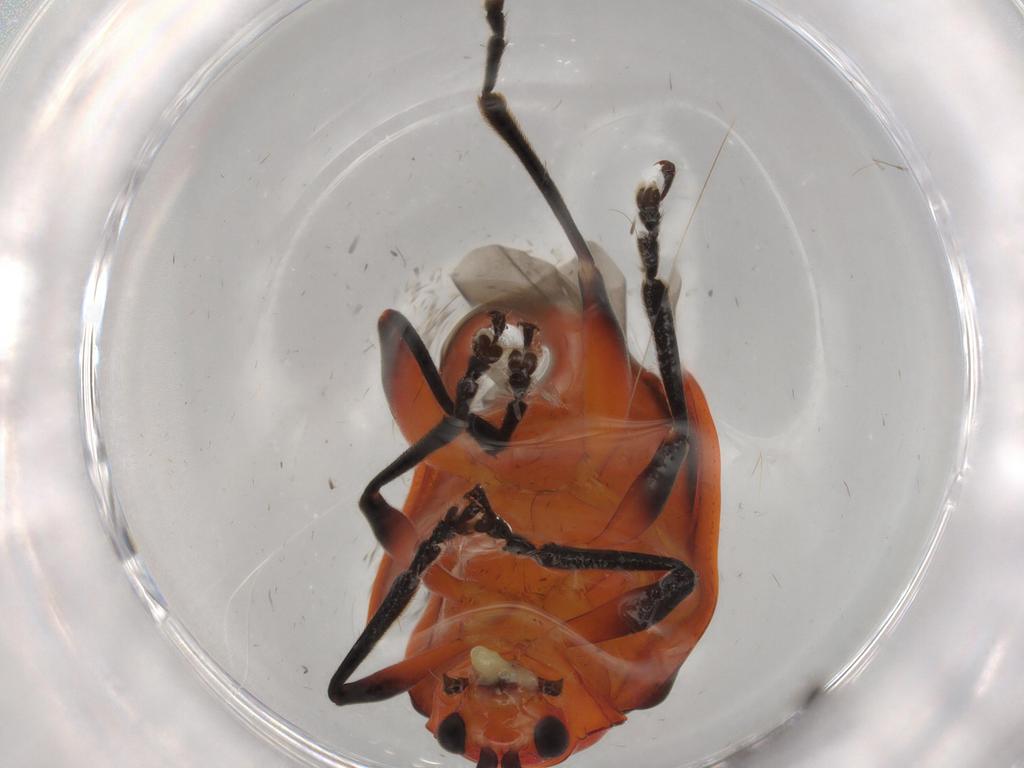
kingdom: Animalia
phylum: Arthropoda
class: Insecta
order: Coleoptera
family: Chrysomelidae
